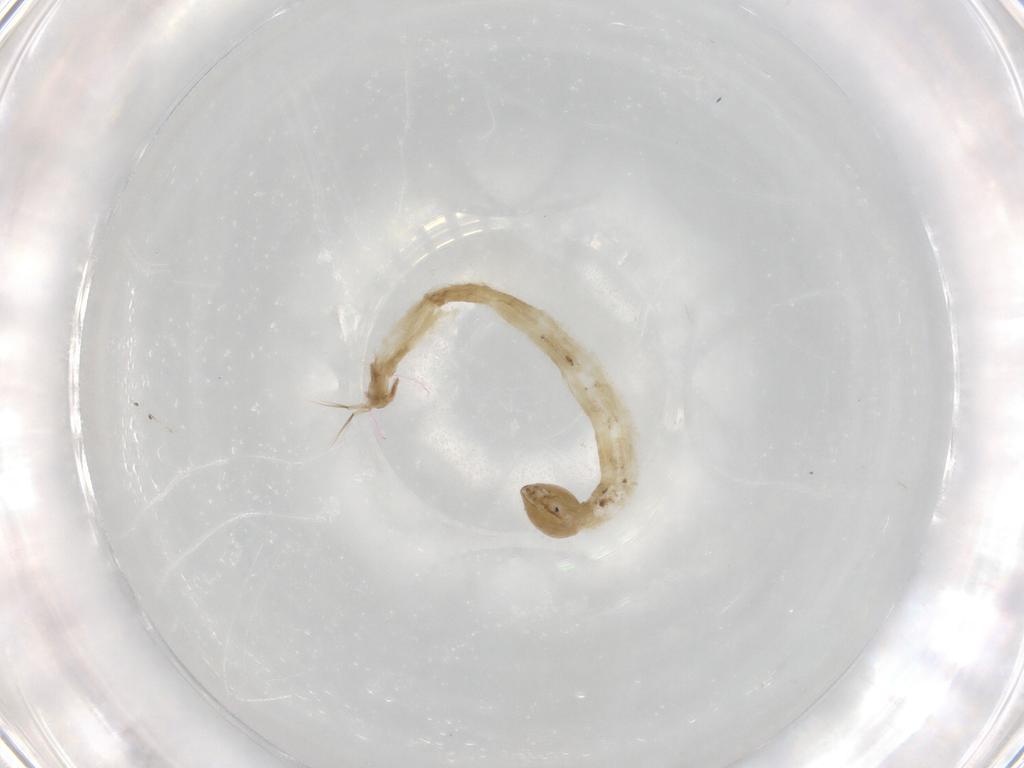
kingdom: Animalia
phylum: Arthropoda
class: Insecta
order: Diptera
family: Chironomidae
